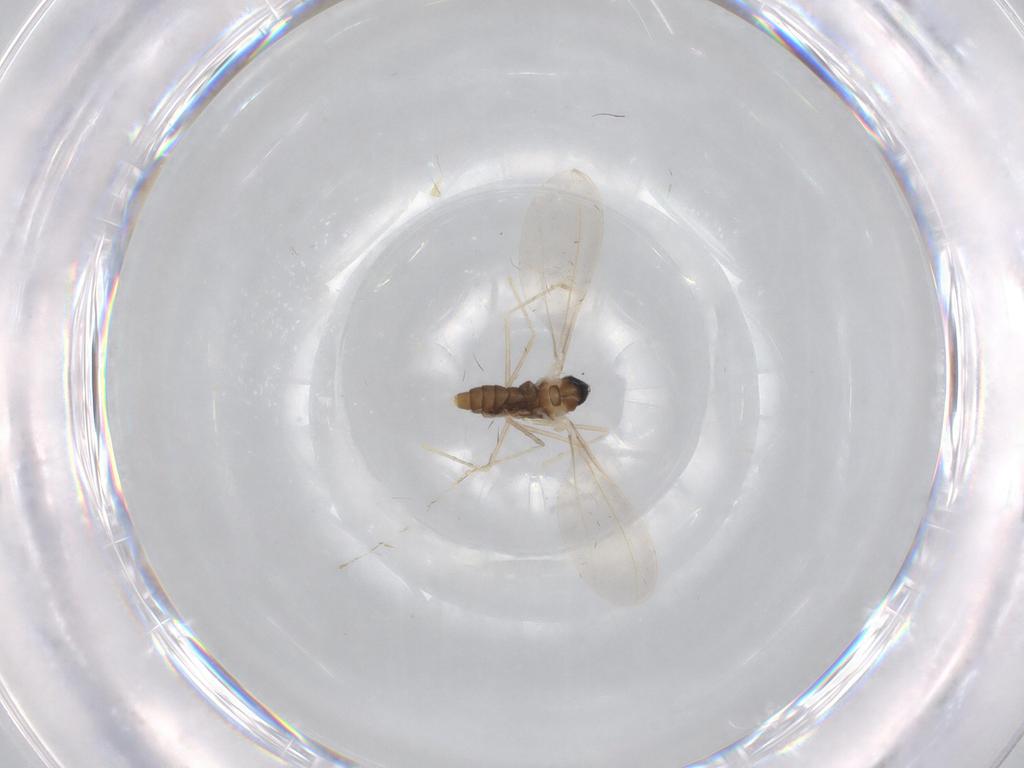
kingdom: Animalia
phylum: Arthropoda
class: Insecta
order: Diptera
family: Cecidomyiidae
